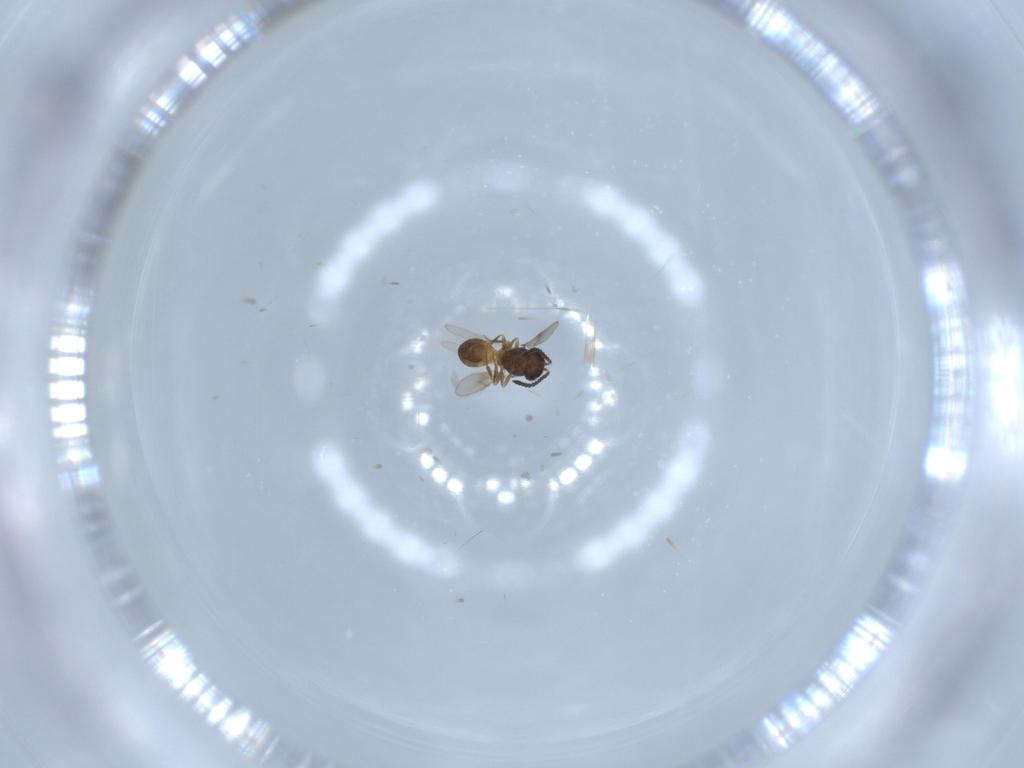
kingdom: Animalia
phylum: Arthropoda
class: Insecta
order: Hymenoptera
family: Scelionidae
